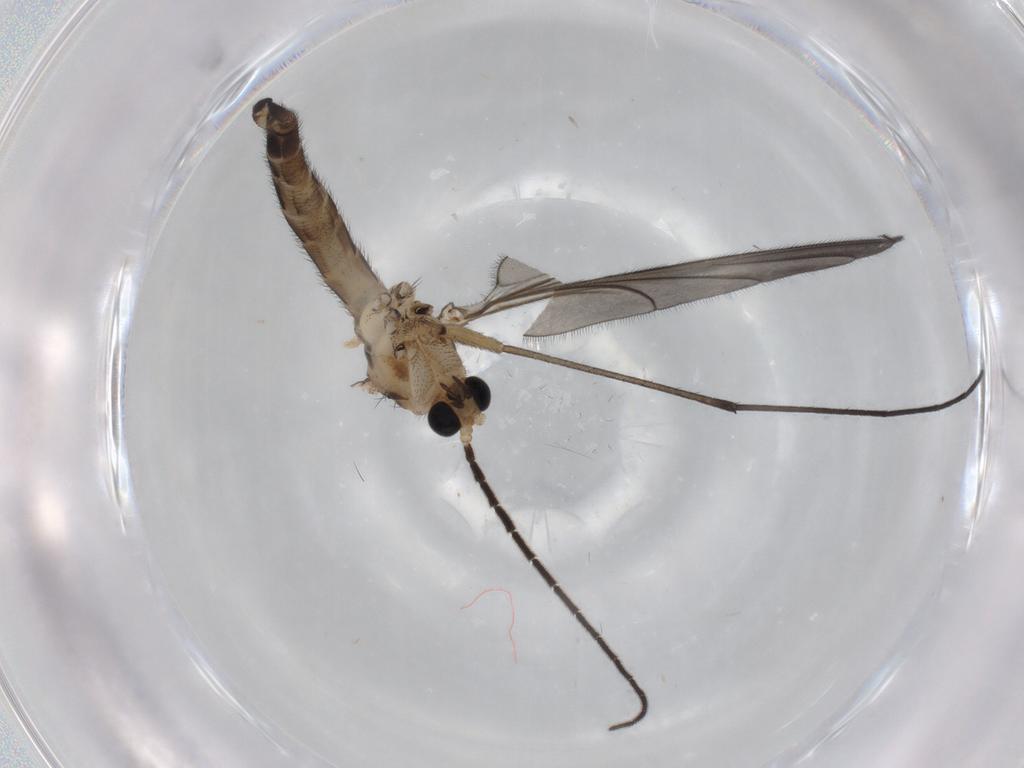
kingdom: Animalia
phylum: Arthropoda
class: Insecta
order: Diptera
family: Sciaridae
